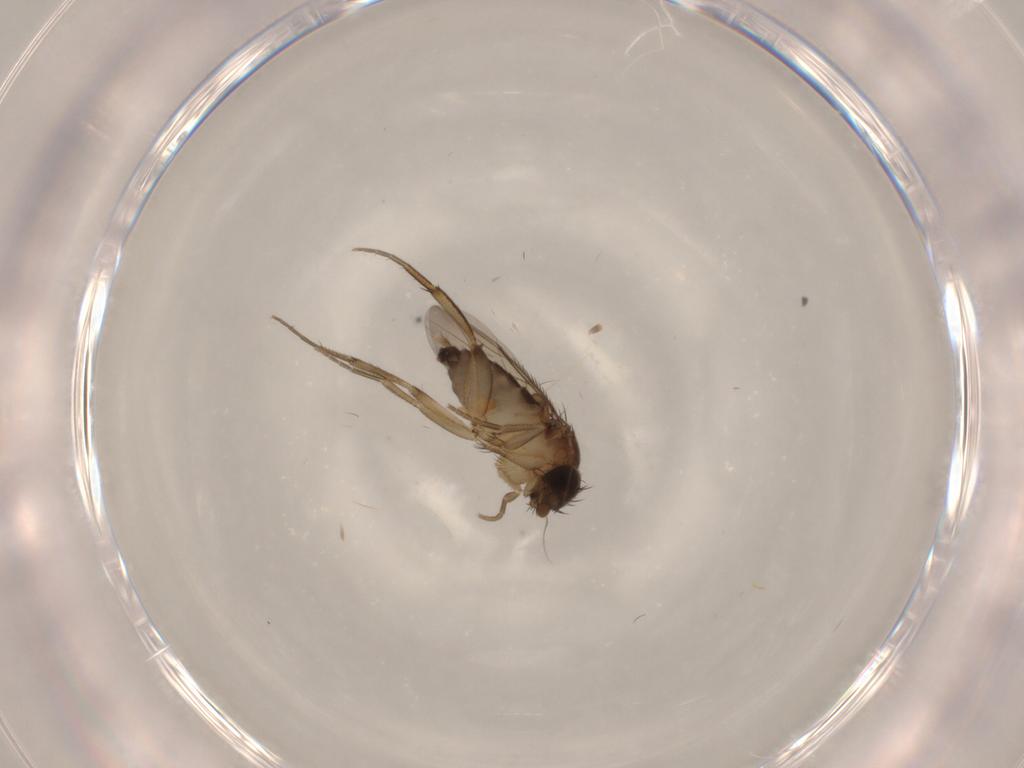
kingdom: Animalia
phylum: Arthropoda
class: Insecta
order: Diptera
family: Phoridae
